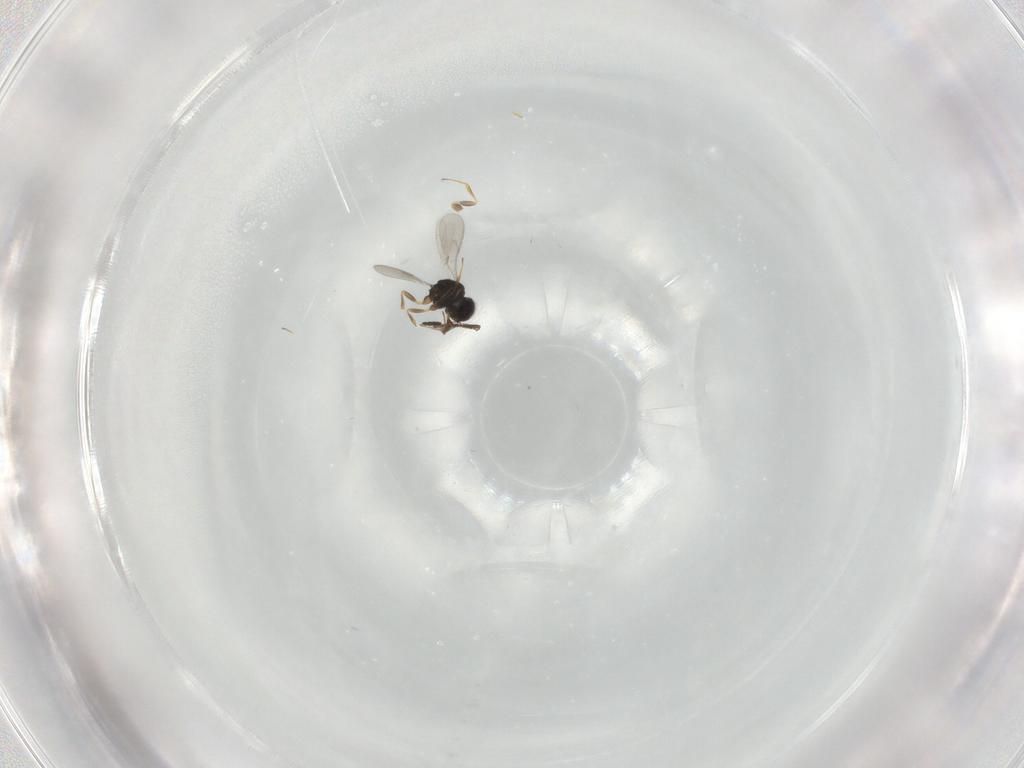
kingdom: Animalia
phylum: Arthropoda
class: Insecta
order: Hymenoptera
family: Scelionidae
